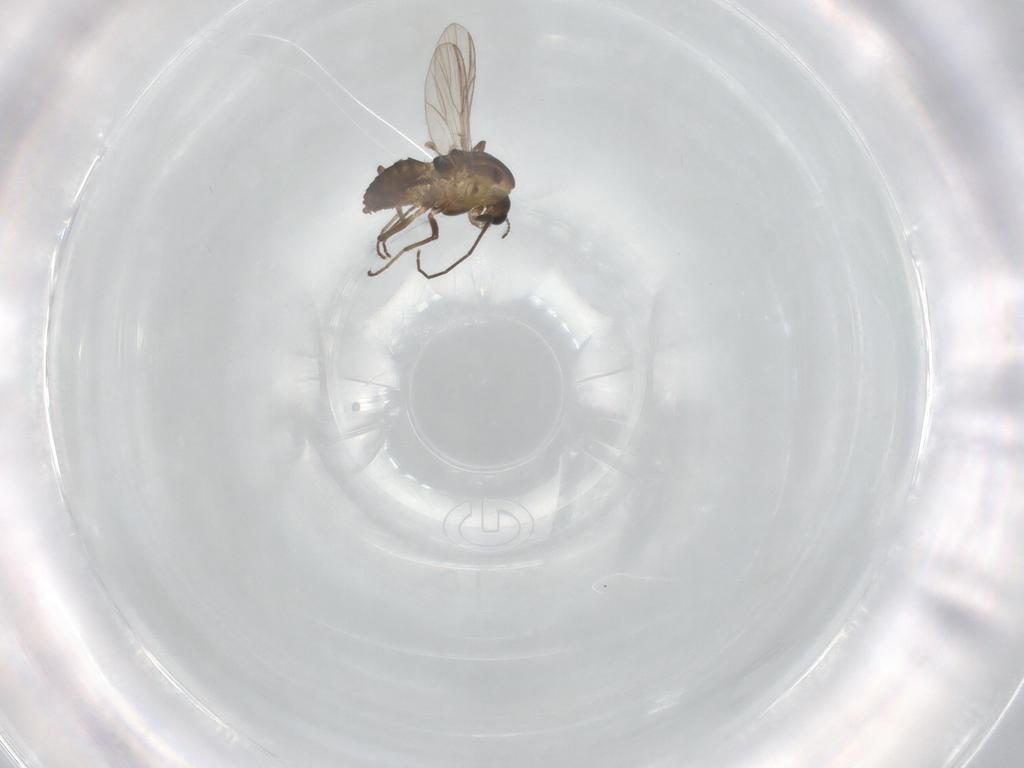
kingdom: Animalia
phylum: Arthropoda
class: Insecta
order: Diptera
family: Chironomidae
